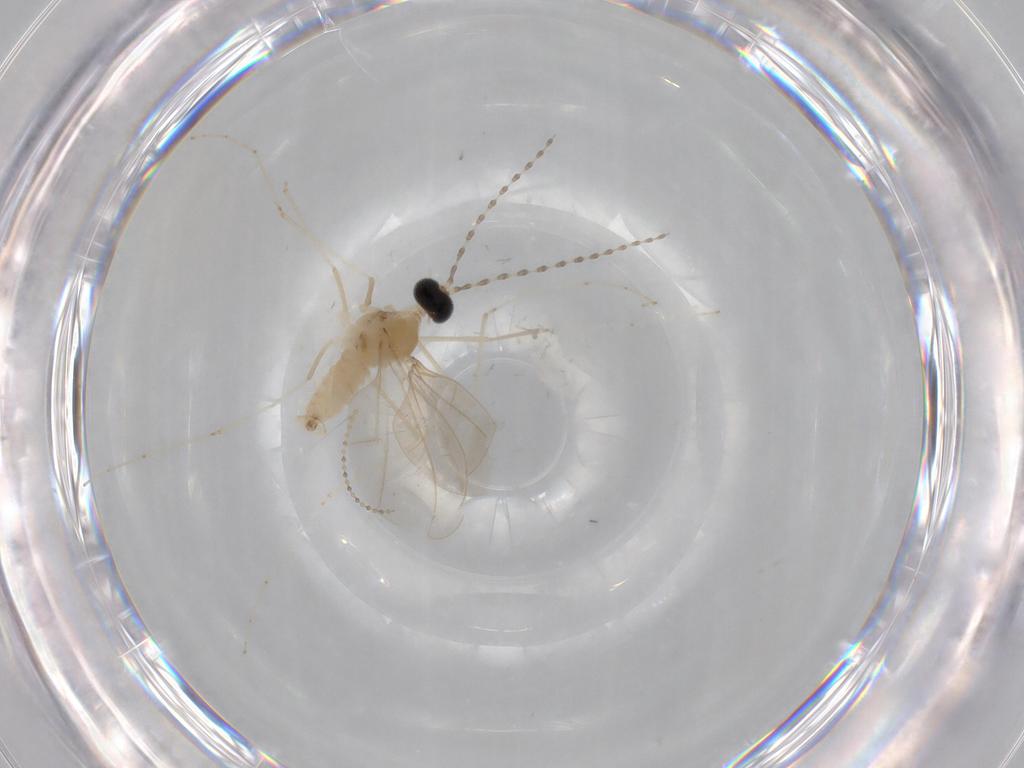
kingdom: Animalia
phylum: Arthropoda
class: Insecta
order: Diptera
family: Cecidomyiidae
